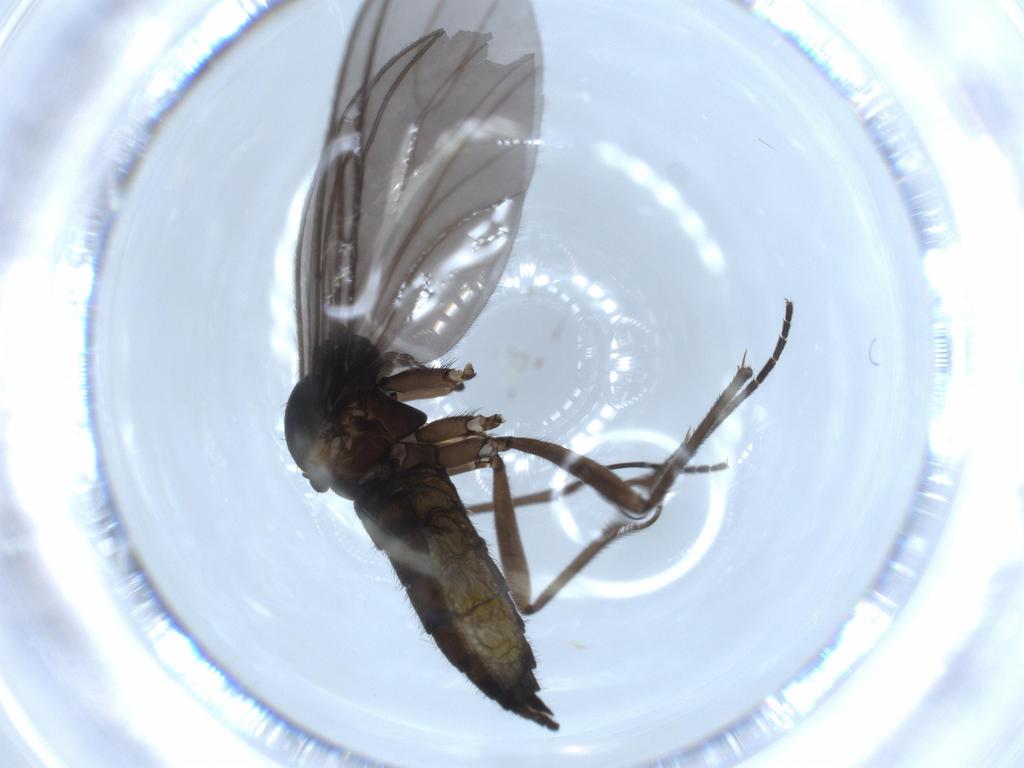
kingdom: Animalia
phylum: Arthropoda
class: Insecta
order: Diptera
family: Sciaridae
